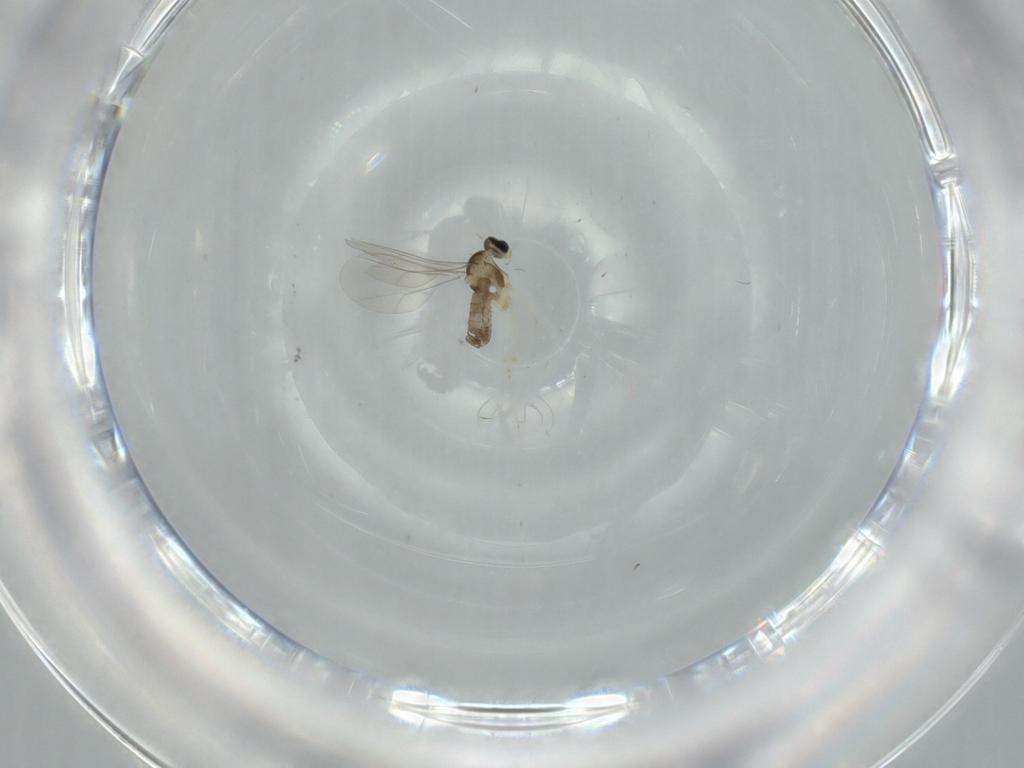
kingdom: Animalia
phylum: Arthropoda
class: Insecta
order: Diptera
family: Cecidomyiidae
